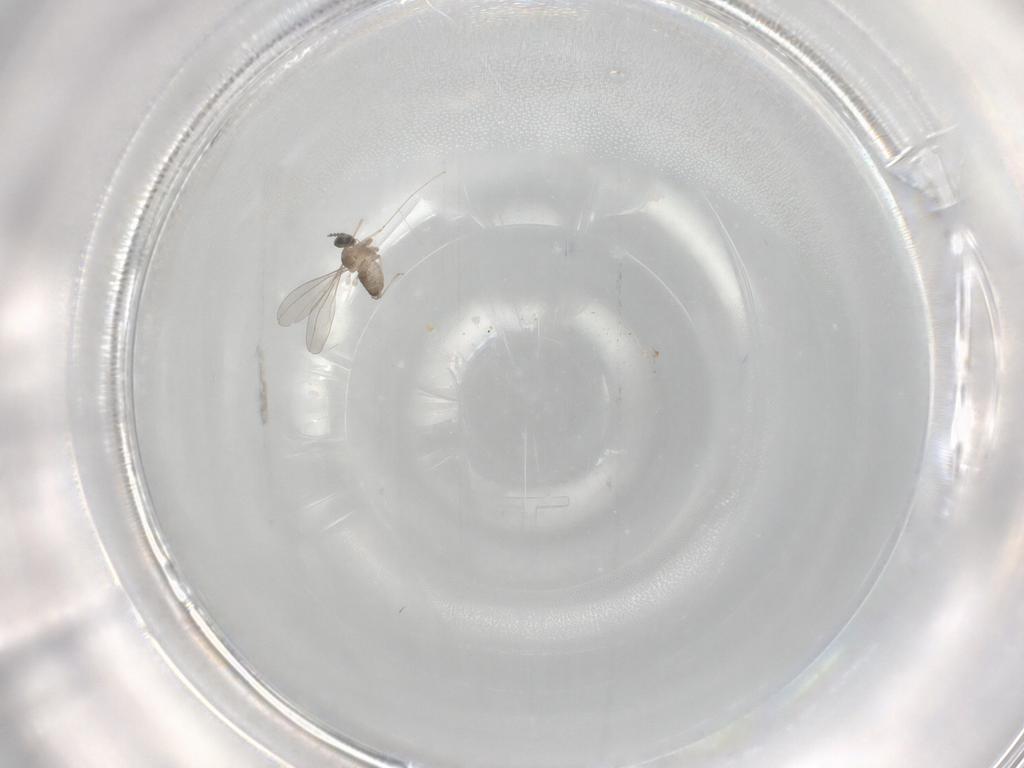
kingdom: Animalia
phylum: Arthropoda
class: Insecta
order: Diptera
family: Cecidomyiidae
